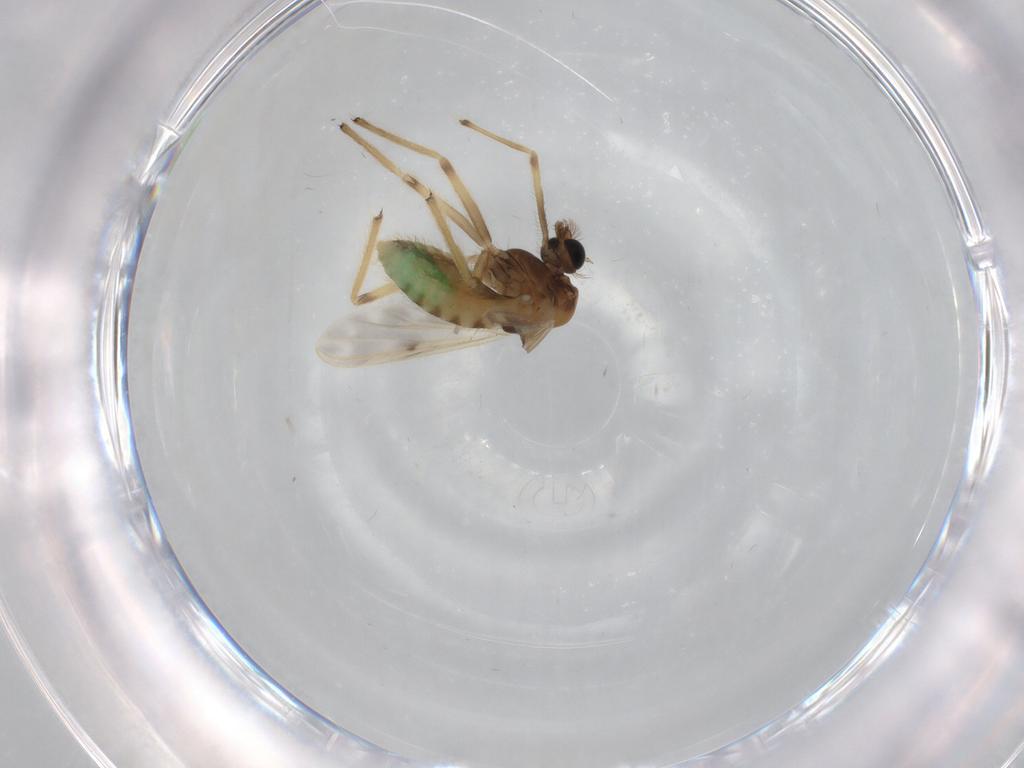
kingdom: Animalia
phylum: Arthropoda
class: Insecta
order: Diptera
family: Chironomidae
